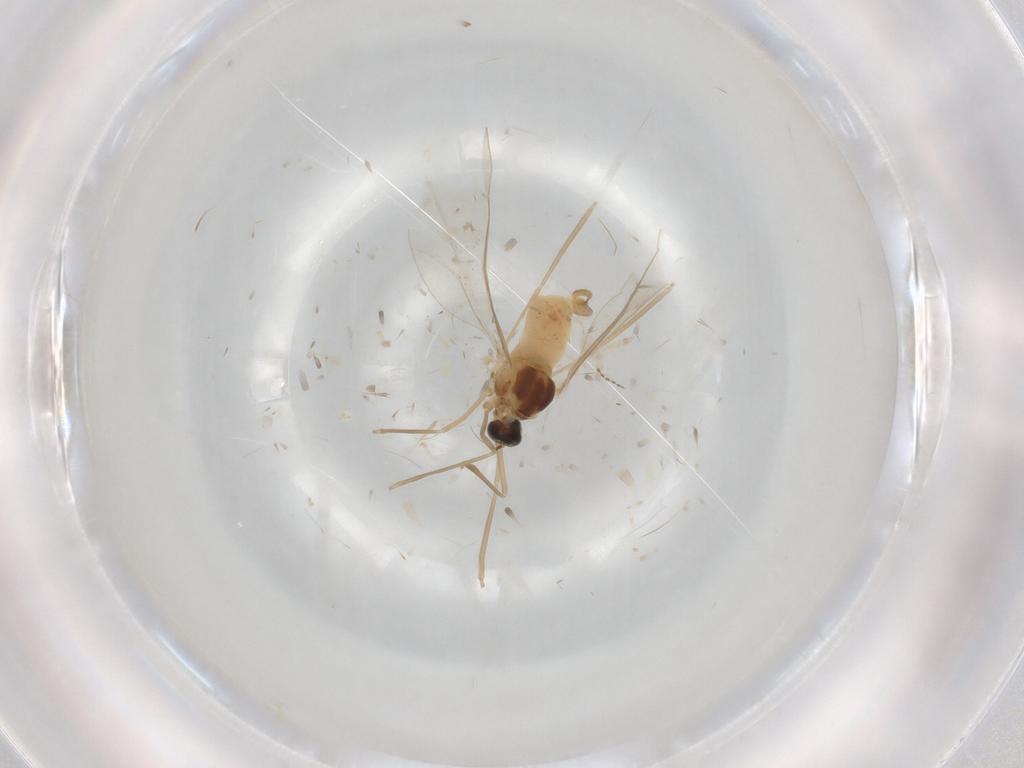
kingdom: Animalia
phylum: Arthropoda
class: Insecta
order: Diptera
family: Cecidomyiidae
